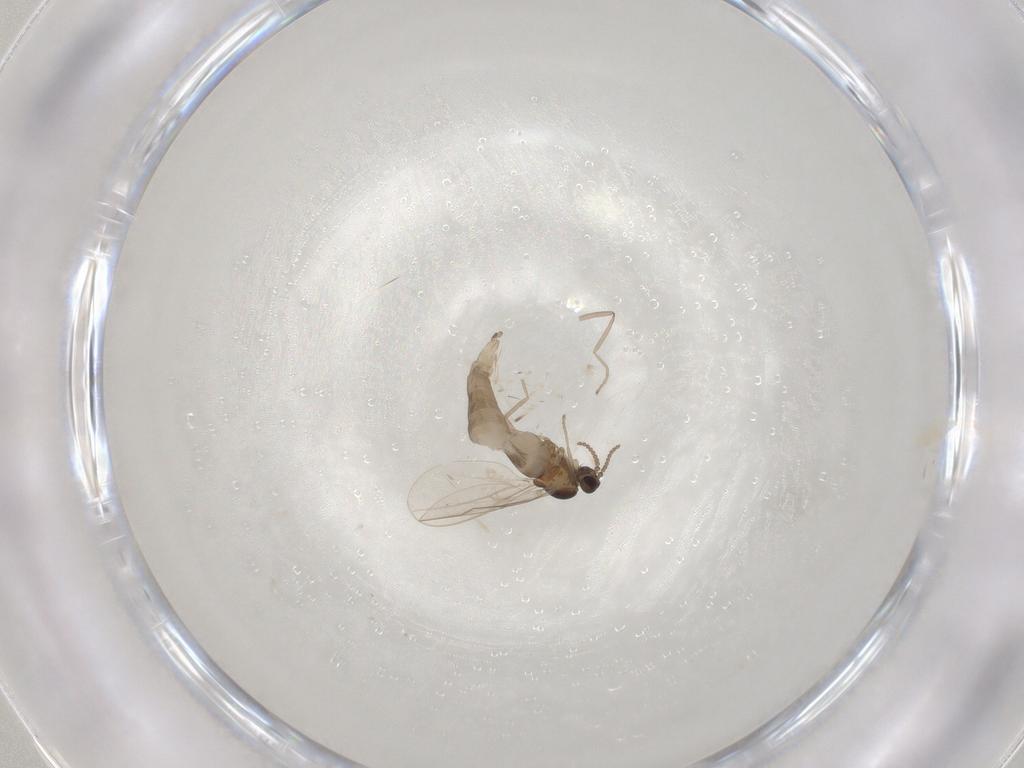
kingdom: Animalia
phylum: Arthropoda
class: Insecta
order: Diptera
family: Cecidomyiidae
